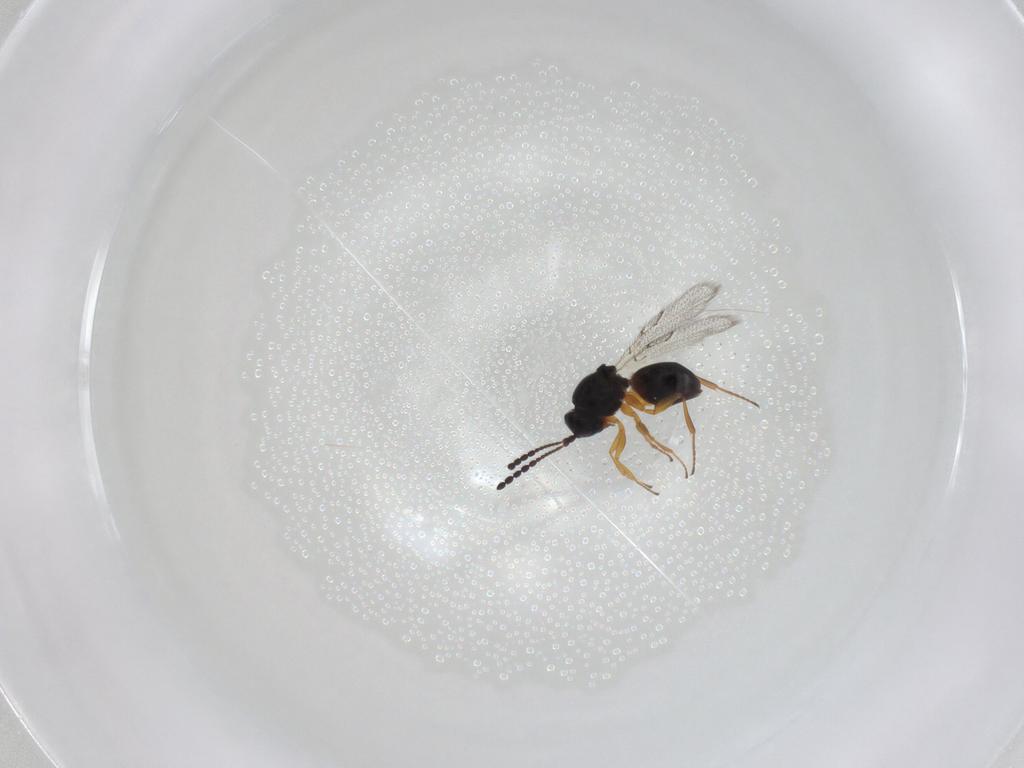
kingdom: Animalia
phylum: Arthropoda
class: Insecta
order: Hymenoptera
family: Figitidae
